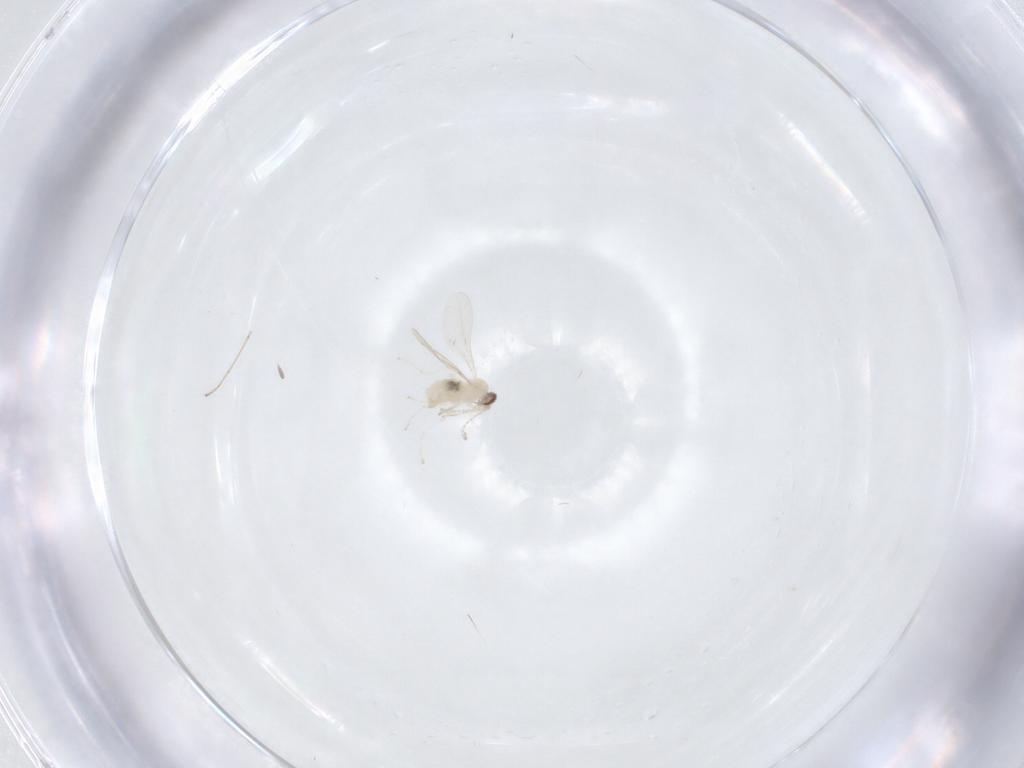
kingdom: Animalia
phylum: Arthropoda
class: Insecta
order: Diptera
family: Cecidomyiidae
